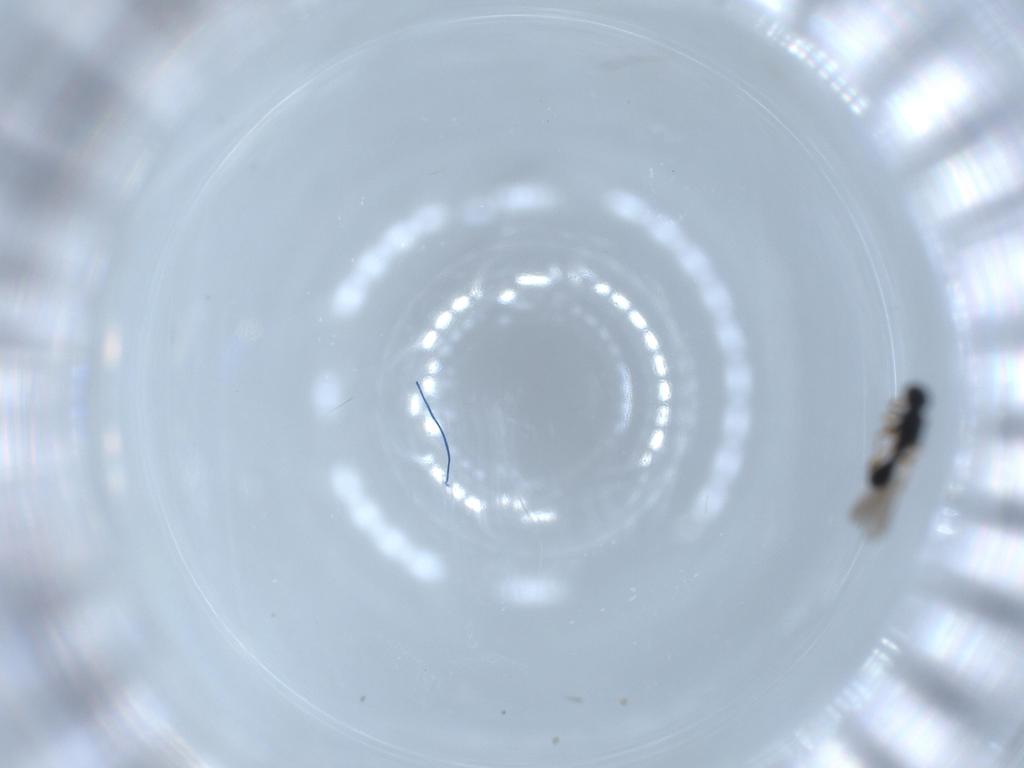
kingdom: Animalia
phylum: Arthropoda
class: Insecta
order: Hymenoptera
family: Platygastridae
